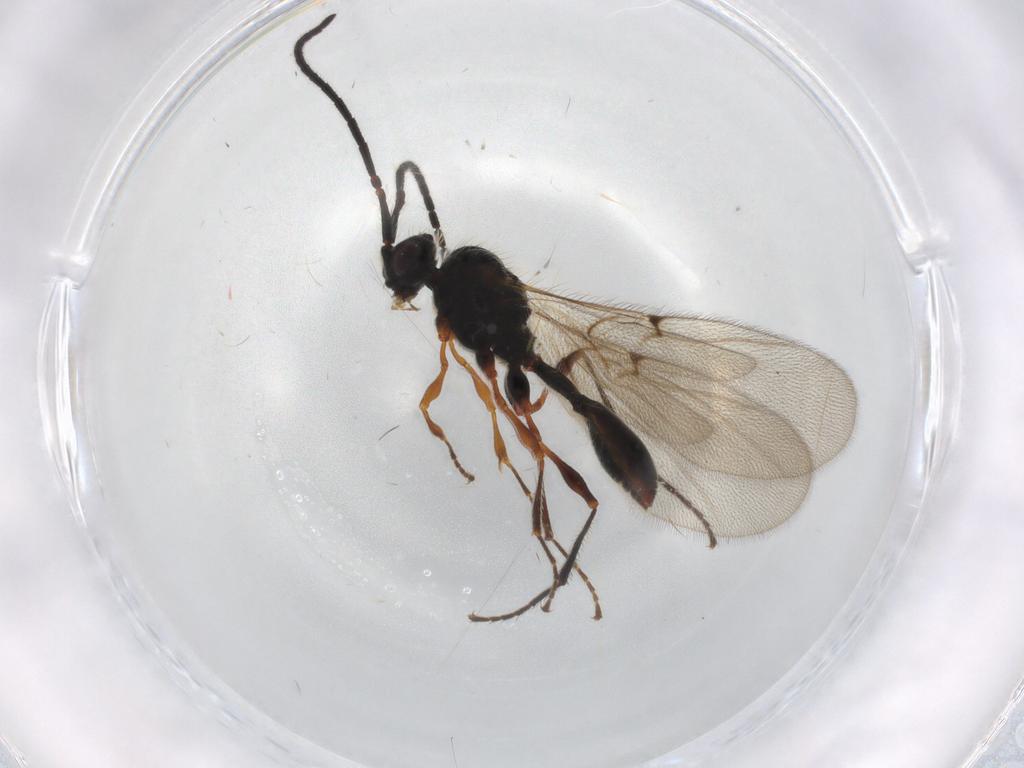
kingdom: Animalia
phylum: Arthropoda
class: Insecta
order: Hymenoptera
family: Diapriidae
